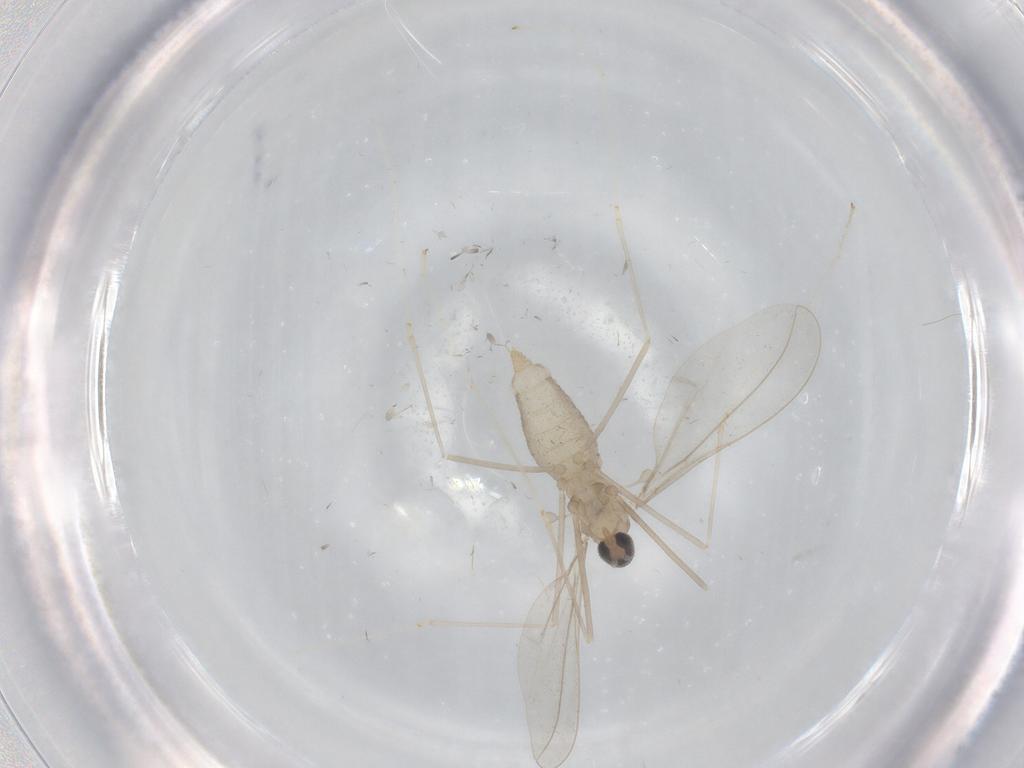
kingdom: Animalia
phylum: Arthropoda
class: Insecta
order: Diptera
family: Cecidomyiidae
